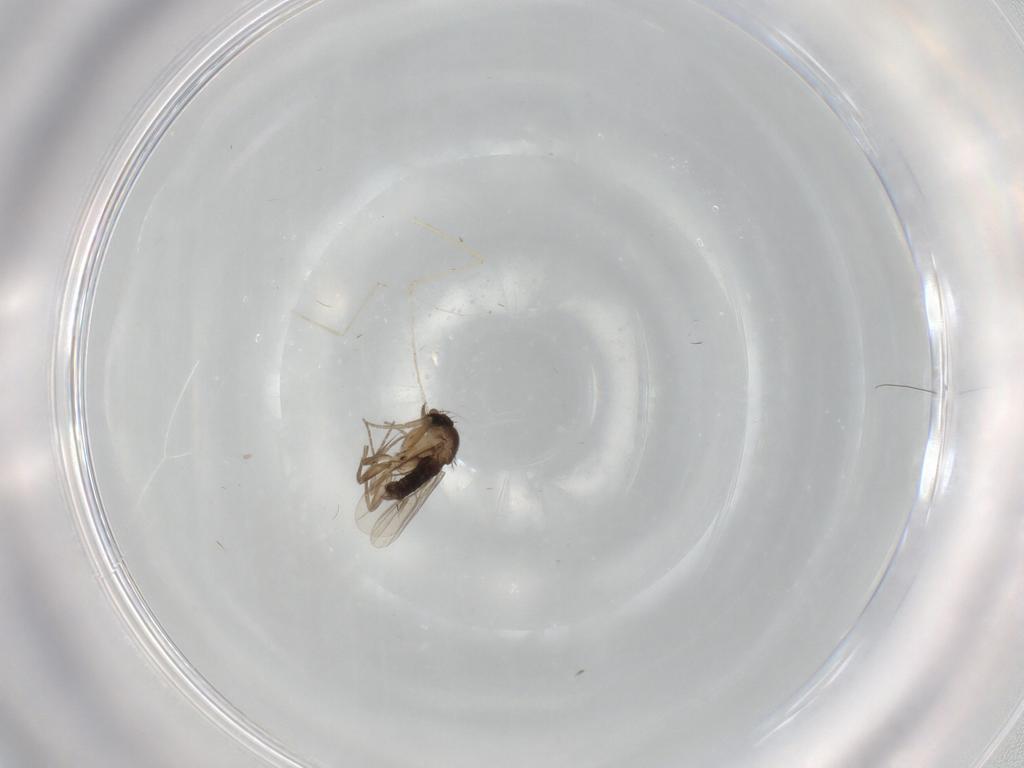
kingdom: Animalia
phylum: Arthropoda
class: Insecta
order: Diptera
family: Phoridae
